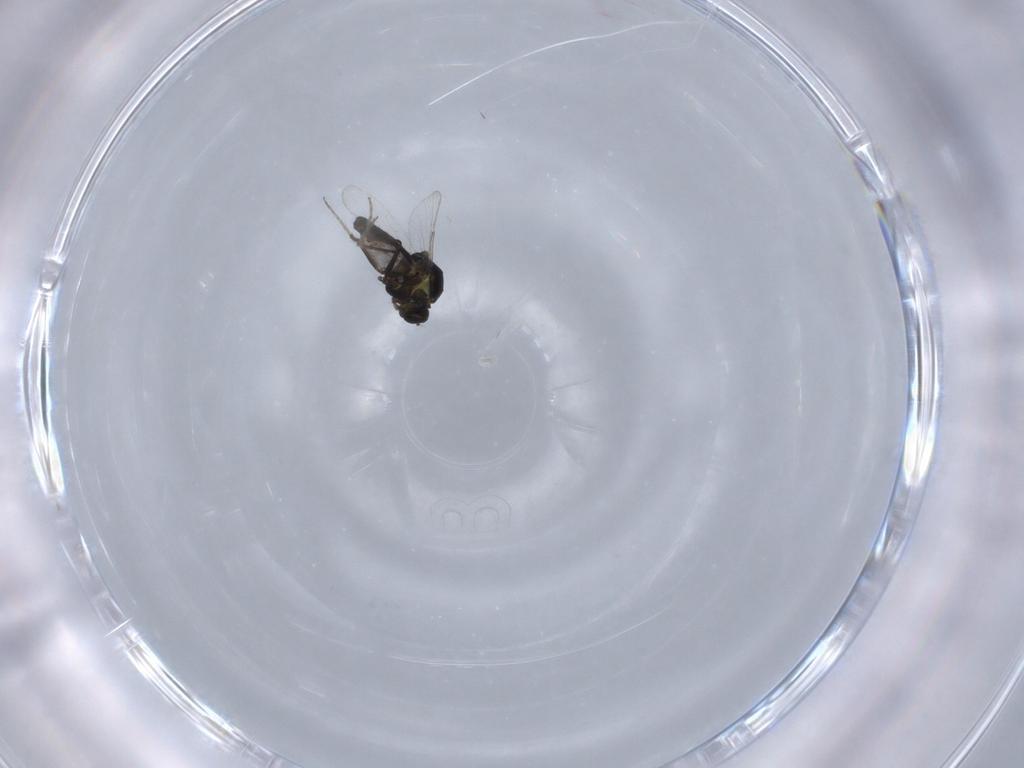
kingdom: Animalia
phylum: Arthropoda
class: Insecta
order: Diptera
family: Ceratopogonidae
